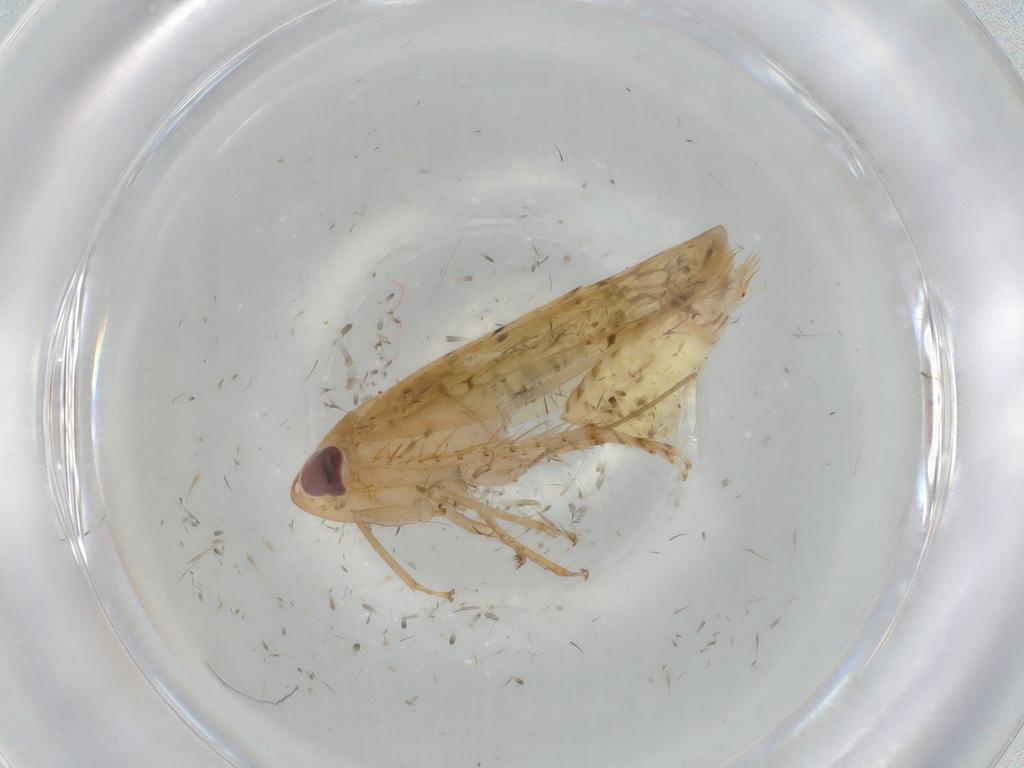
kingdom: Animalia
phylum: Arthropoda
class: Insecta
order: Hemiptera
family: Cicadellidae
